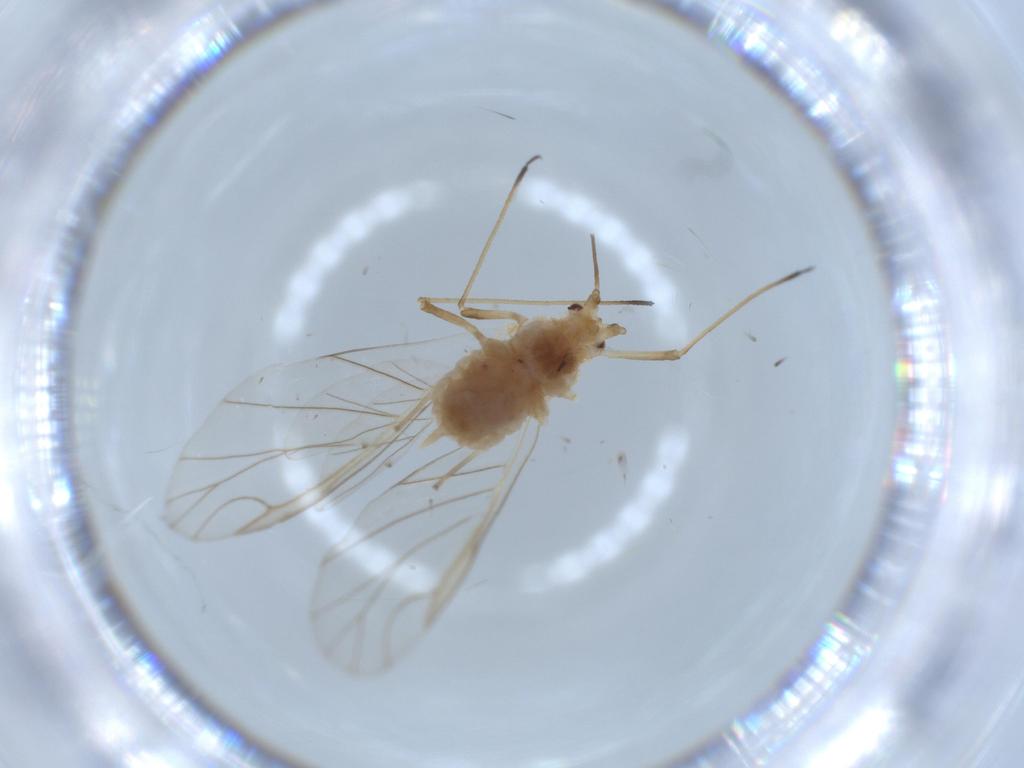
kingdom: Animalia
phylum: Arthropoda
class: Insecta
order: Hemiptera
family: Aphididae
